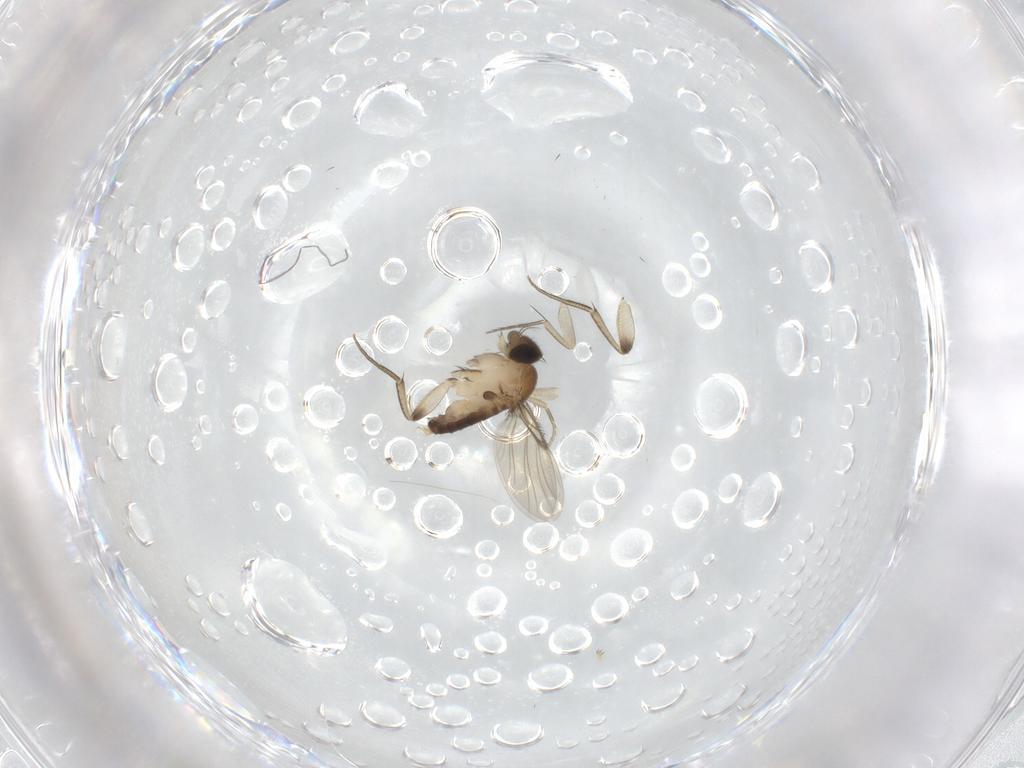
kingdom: Animalia
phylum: Arthropoda
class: Insecta
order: Diptera
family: Phoridae
